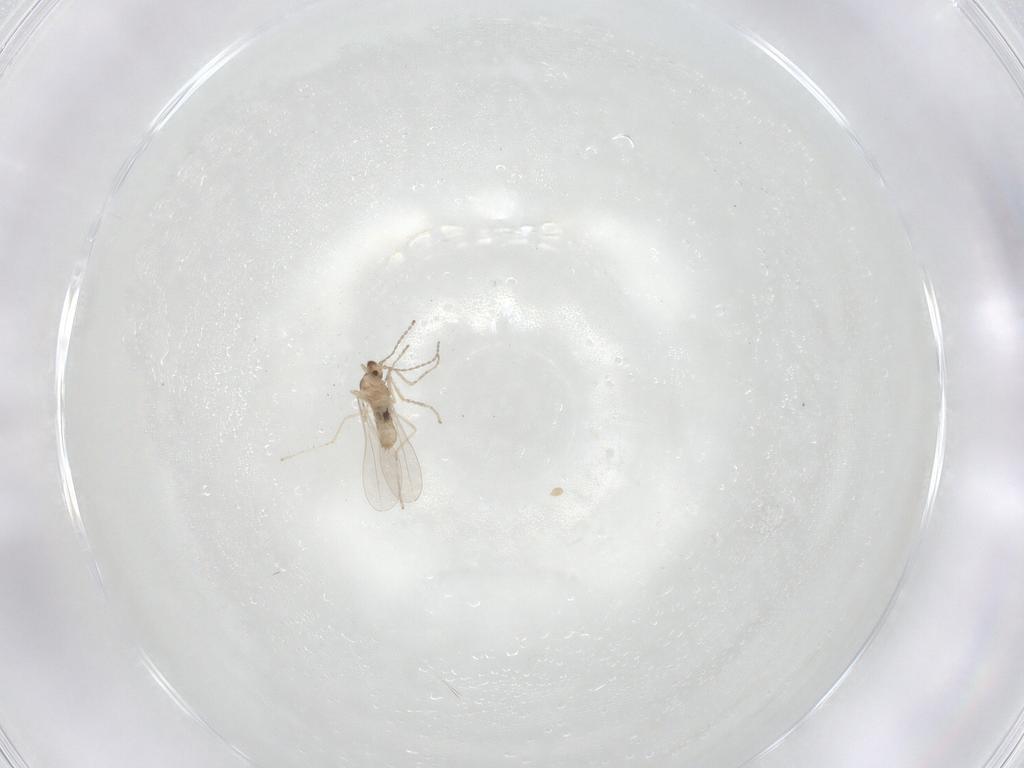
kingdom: Animalia
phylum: Arthropoda
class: Insecta
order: Diptera
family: Cecidomyiidae
